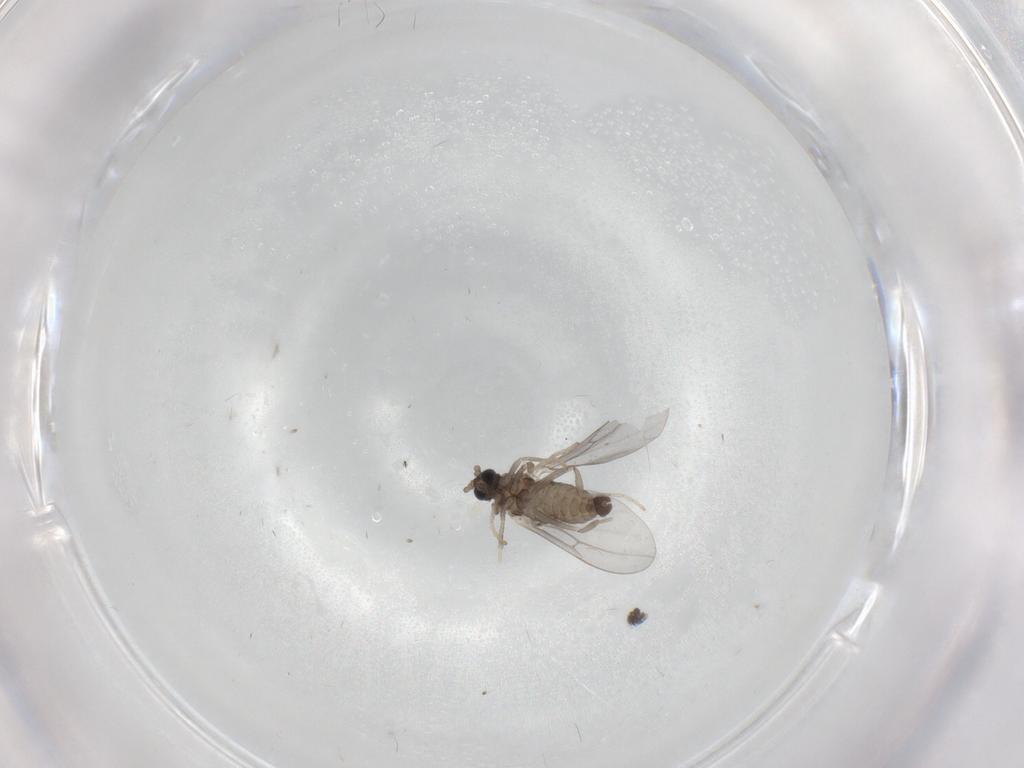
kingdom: Animalia
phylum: Arthropoda
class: Insecta
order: Diptera
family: Cecidomyiidae
